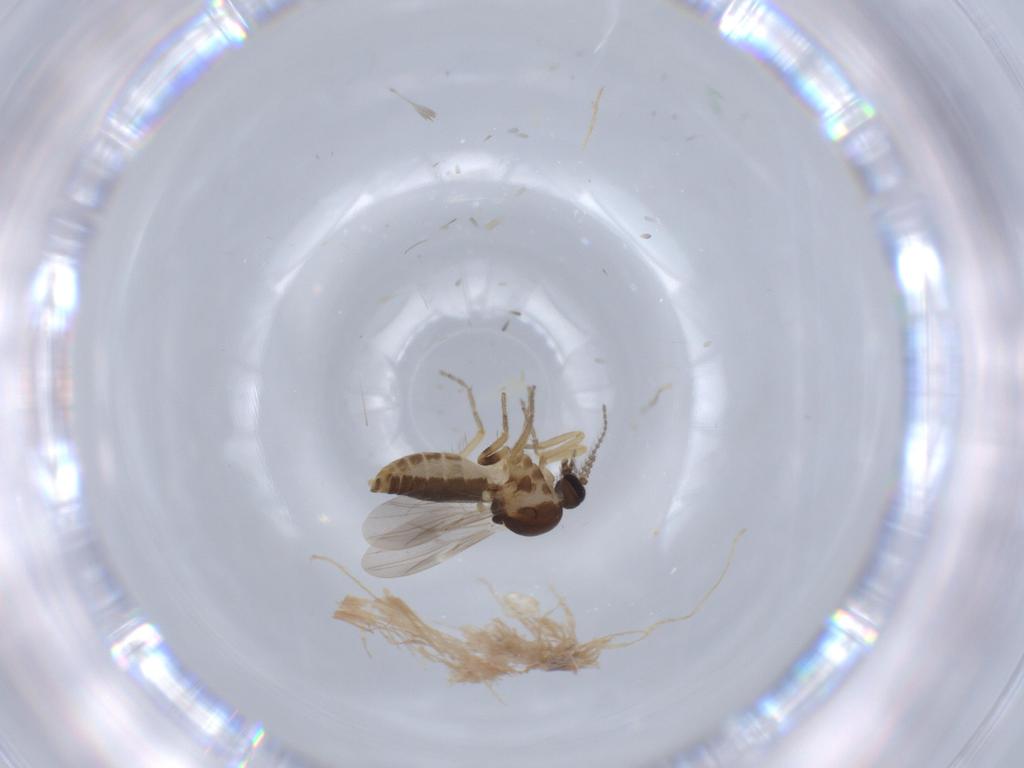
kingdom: Animalia
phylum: Arthropoda
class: Insecta
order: Diptera
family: Ceratopogonidae
